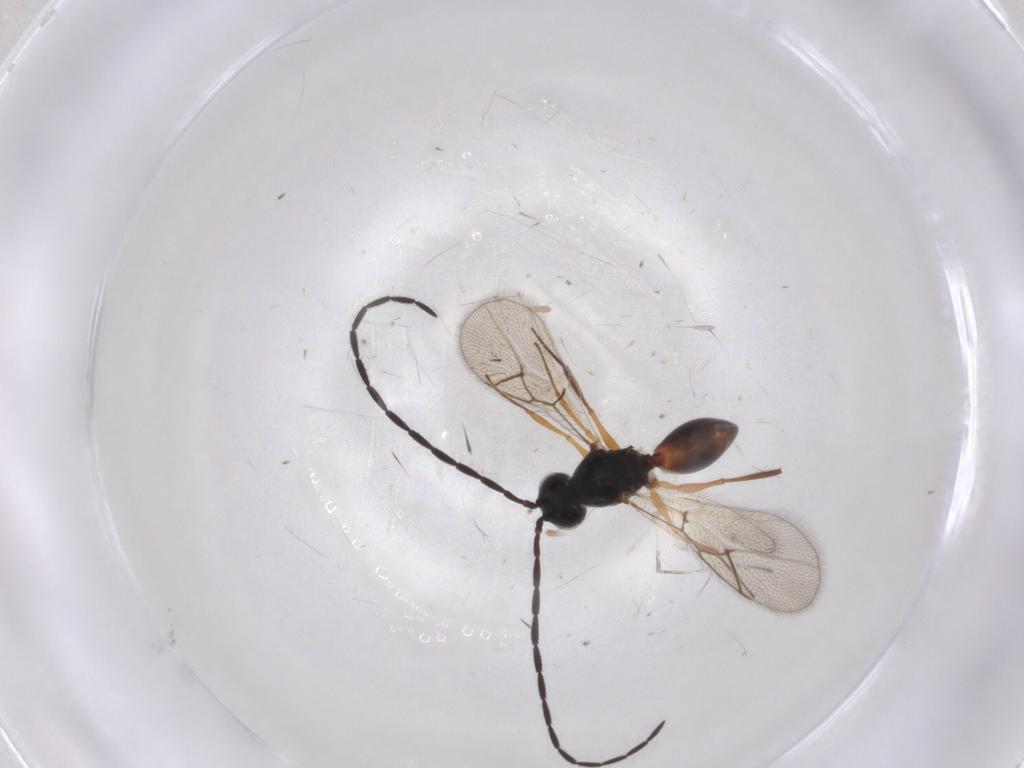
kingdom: Animalia
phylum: Arthropoda
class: Insecta
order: Hymenoptera
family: Figitidae
